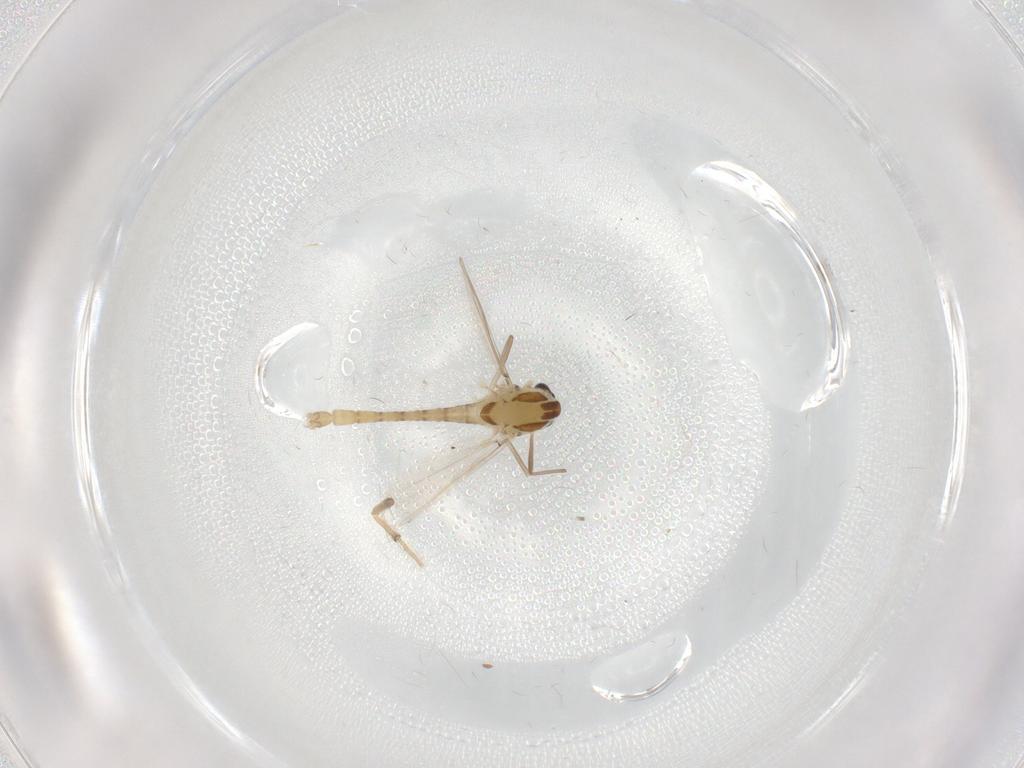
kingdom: Animalia
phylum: Arthropoda
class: Insecta
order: Diptera
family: Chironomidae
